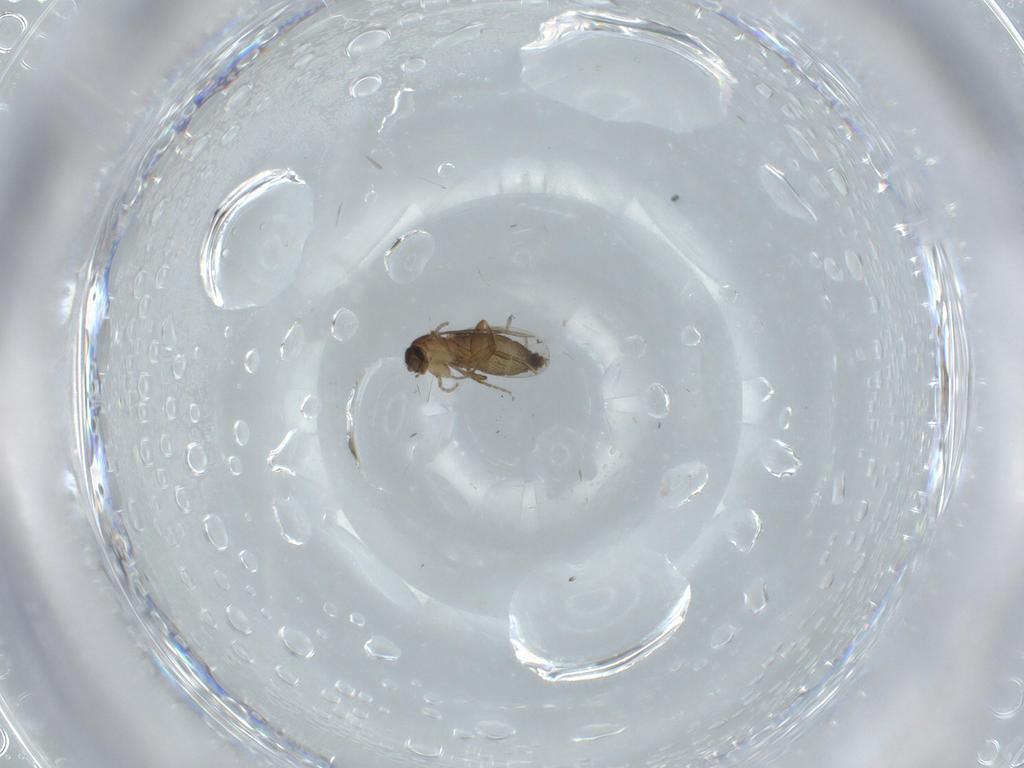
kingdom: Animalia
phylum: Arthropoda
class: Insecta
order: Diptera
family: Phoridae
